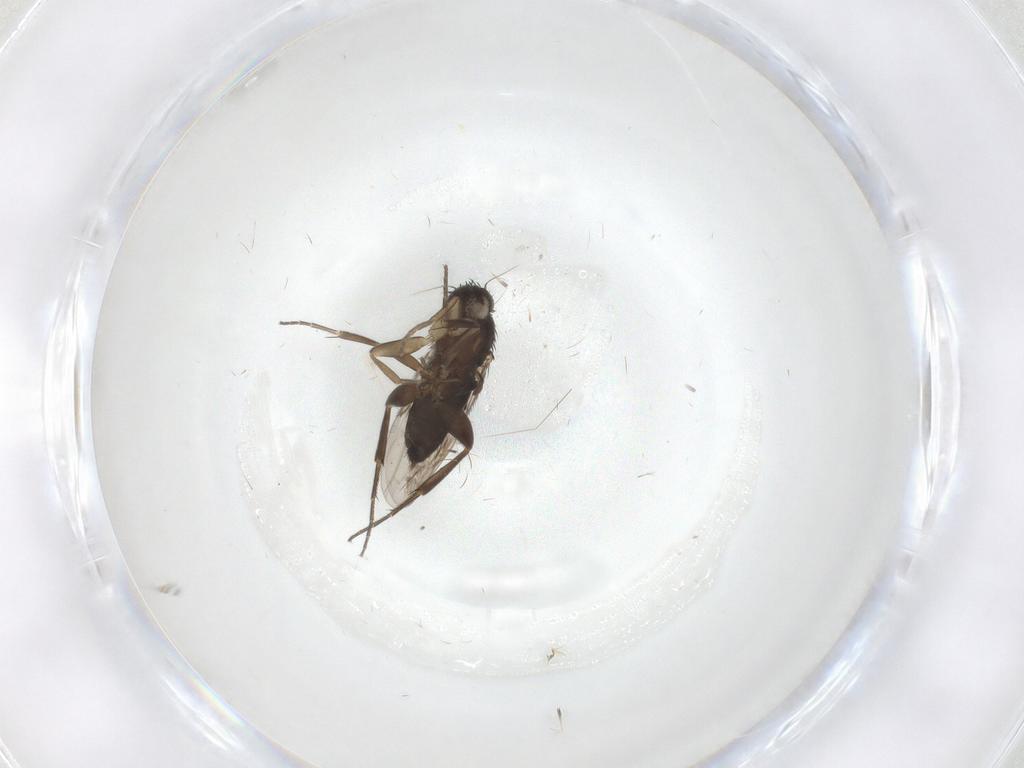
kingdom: Animalia
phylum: Arthropoda
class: Insecta
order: Diptera
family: Phoridae
